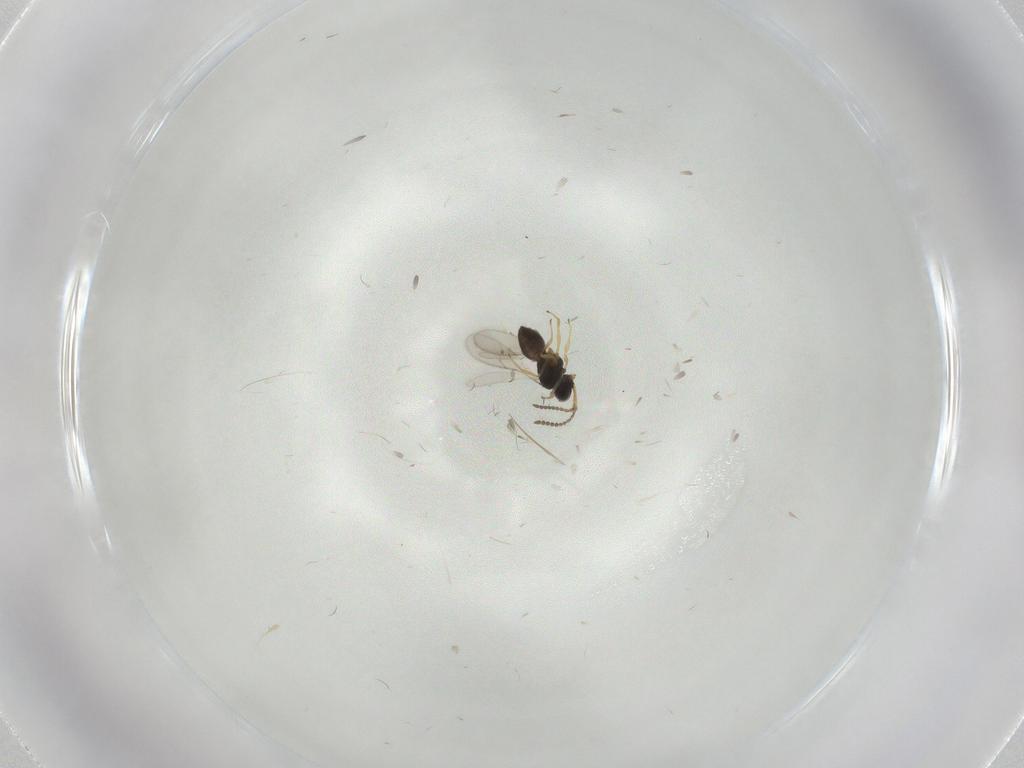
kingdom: Animalia
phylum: Arthropoda
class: Insecta
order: Hymenoptera
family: Scelionidae
